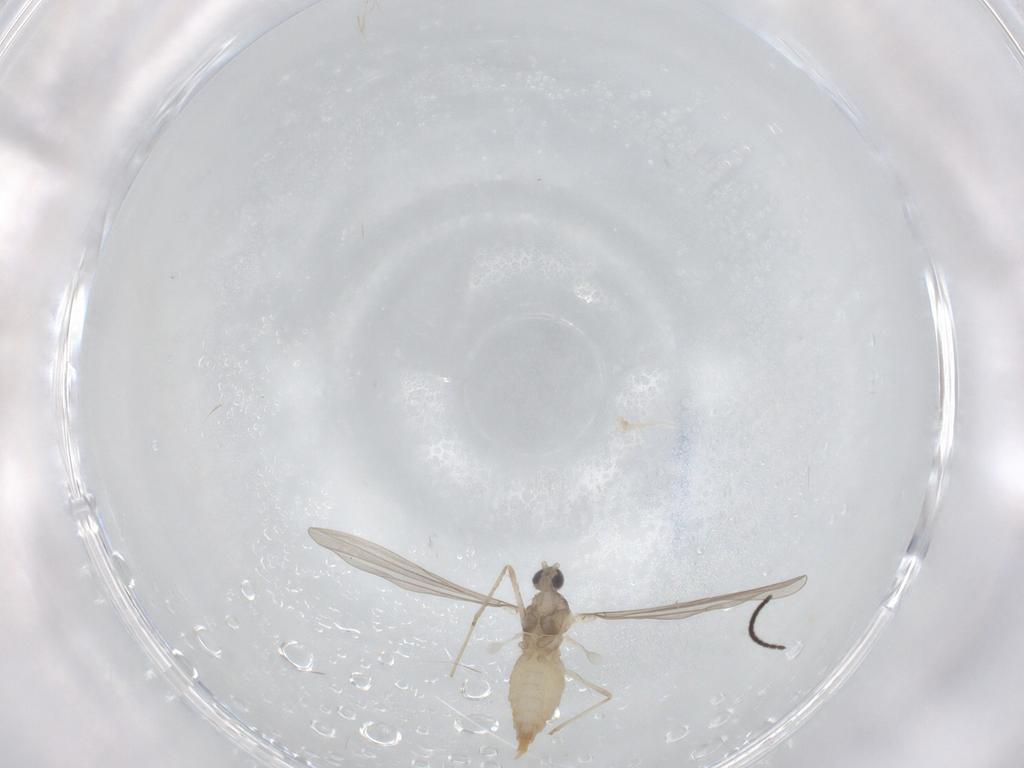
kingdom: Animalia
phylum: Arthropoda
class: Insecta
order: Diptera
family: Cecidomyiidae
